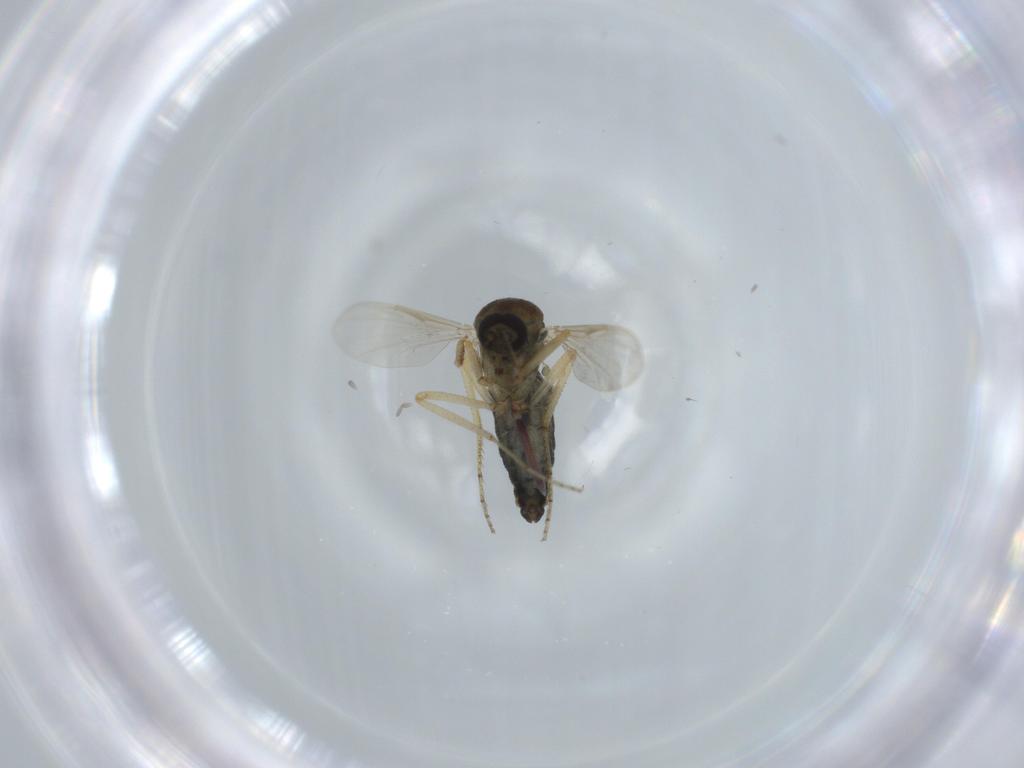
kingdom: Animalia
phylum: Arthropoda
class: Insecta
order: Diptera
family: Ceratopogonidae
